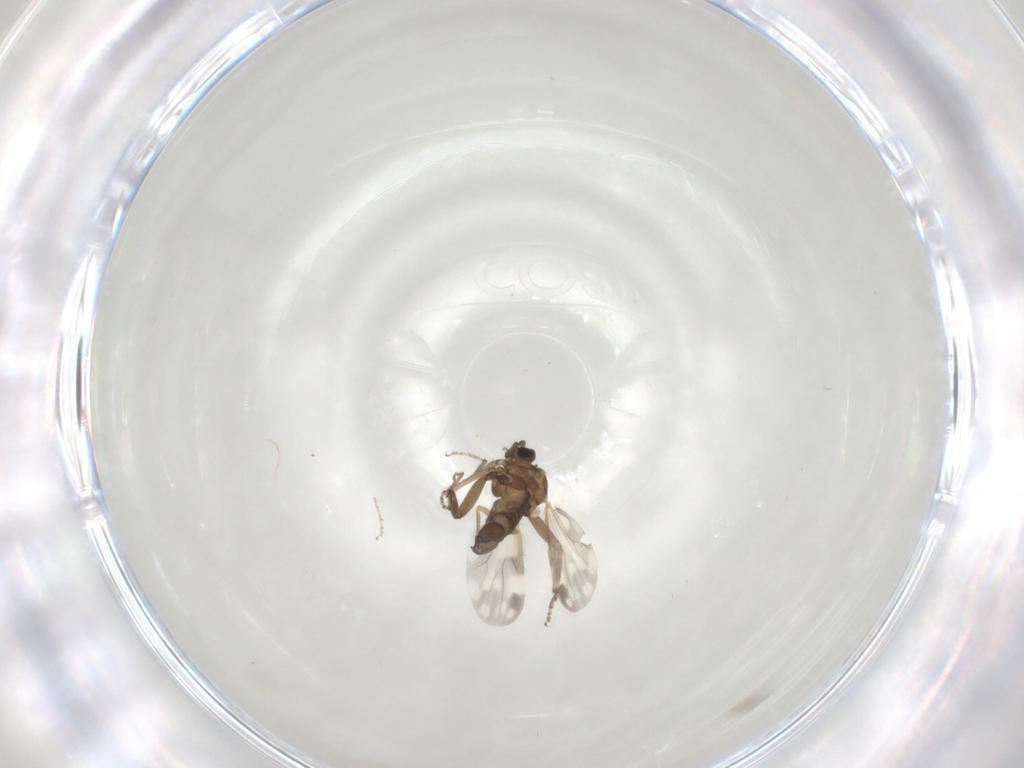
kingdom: Animalia
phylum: Arthropoda
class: Insecta
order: Diptera
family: Ceratopogonidae
